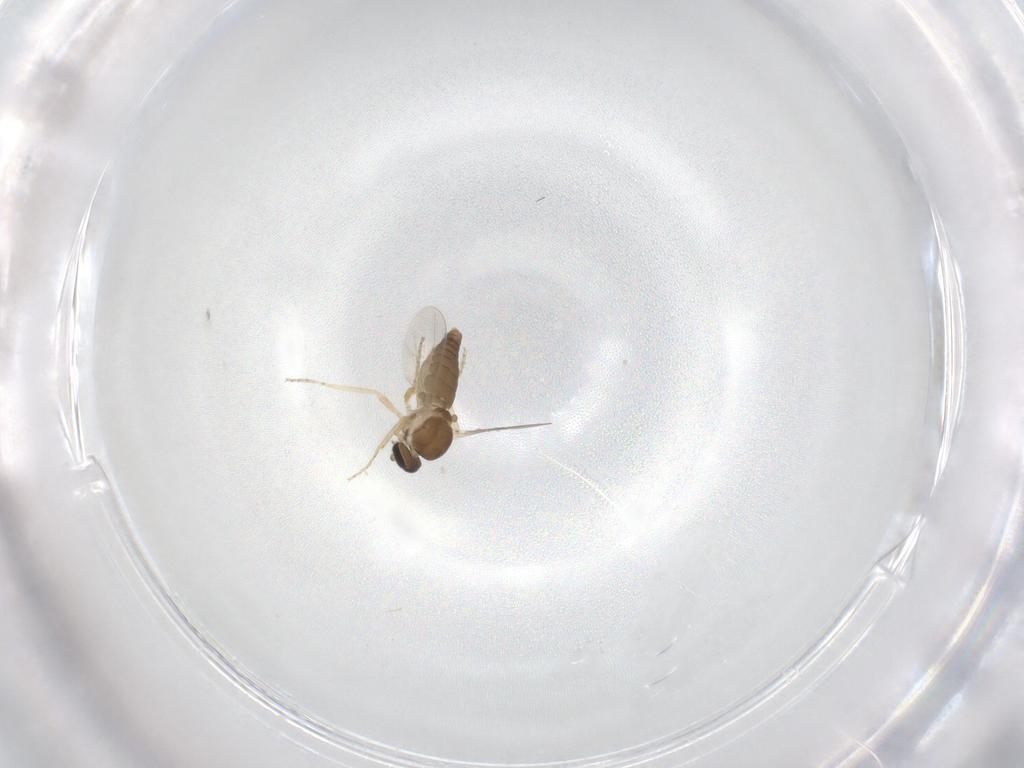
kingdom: Animalia
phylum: Arthropoda
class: Insecta
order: Diptera
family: Ceratopogonidae
